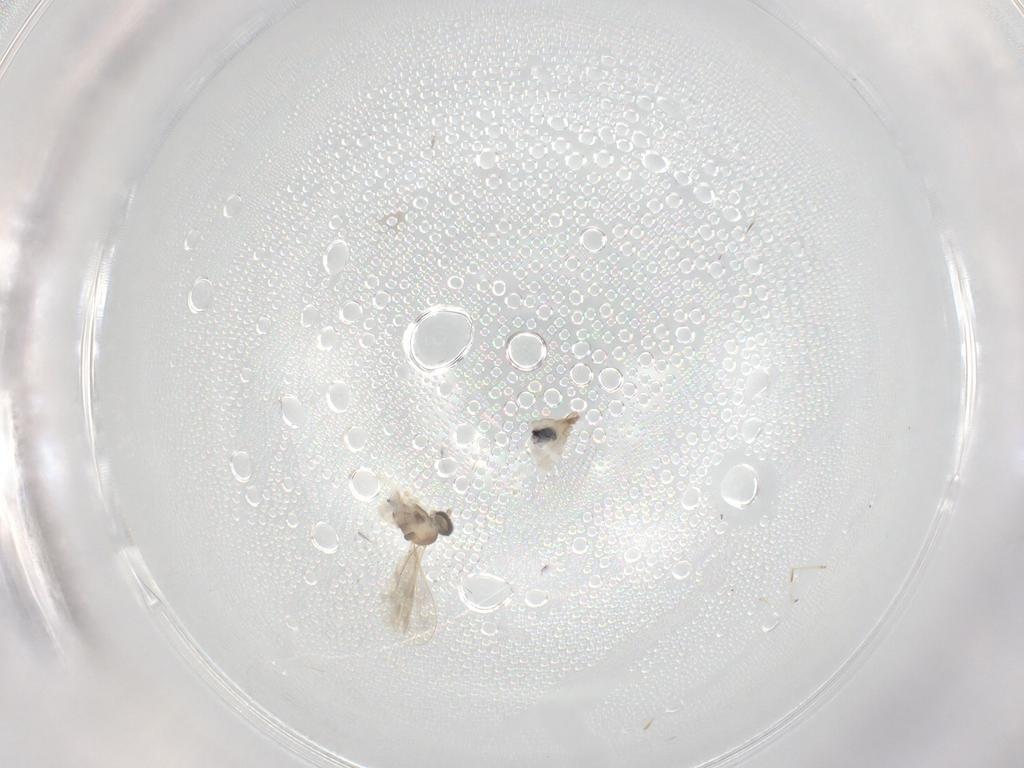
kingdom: Animalia
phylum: Arthropoda
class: Insecta
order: Diptera
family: Cecidomyiidae
